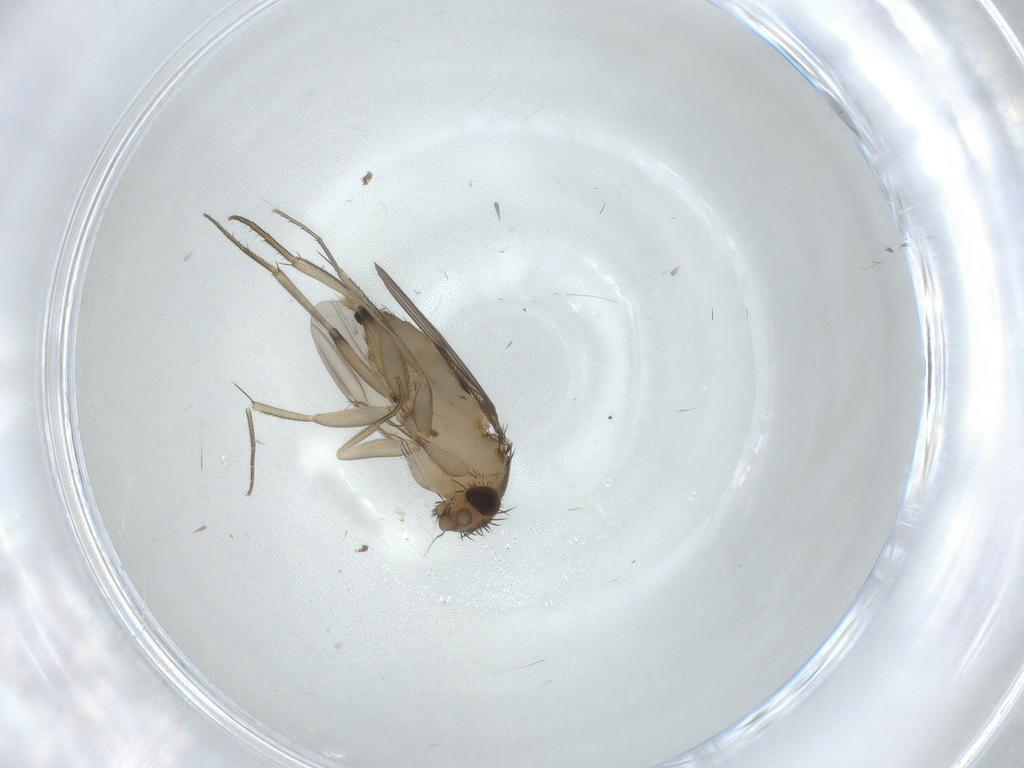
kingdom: Animalia
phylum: Arthropoda
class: Insecta
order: Diptera
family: Phoridae
